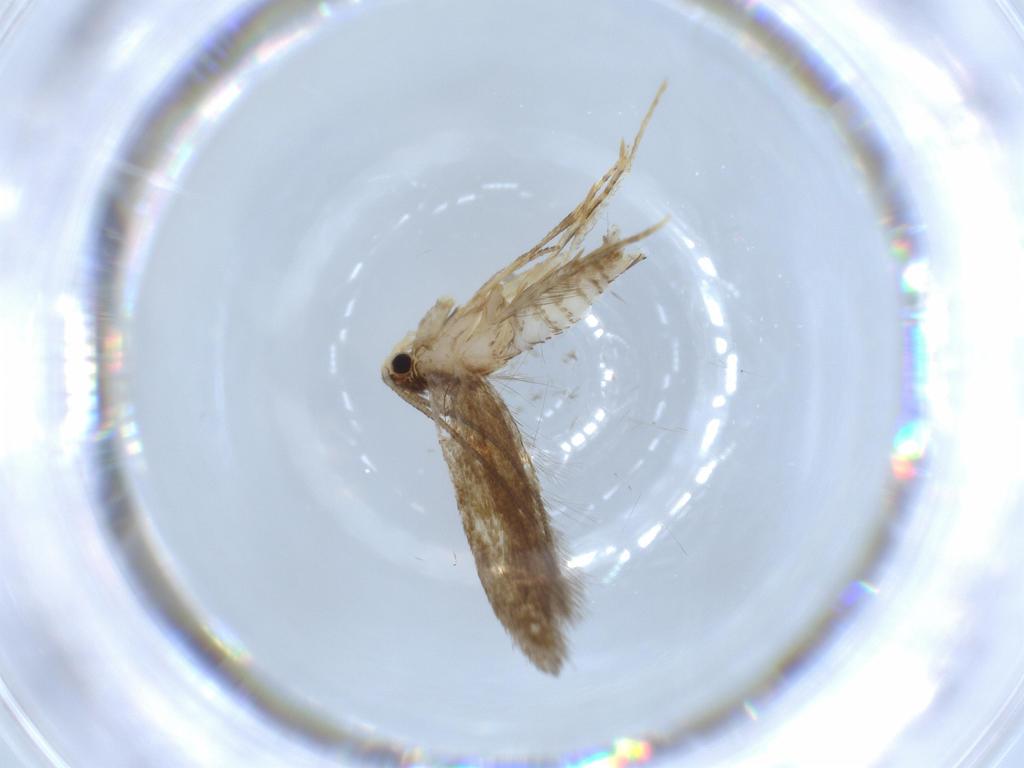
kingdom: Animalia
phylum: Arthropoda
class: Insecta
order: Lepidoptera
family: Tineidae
